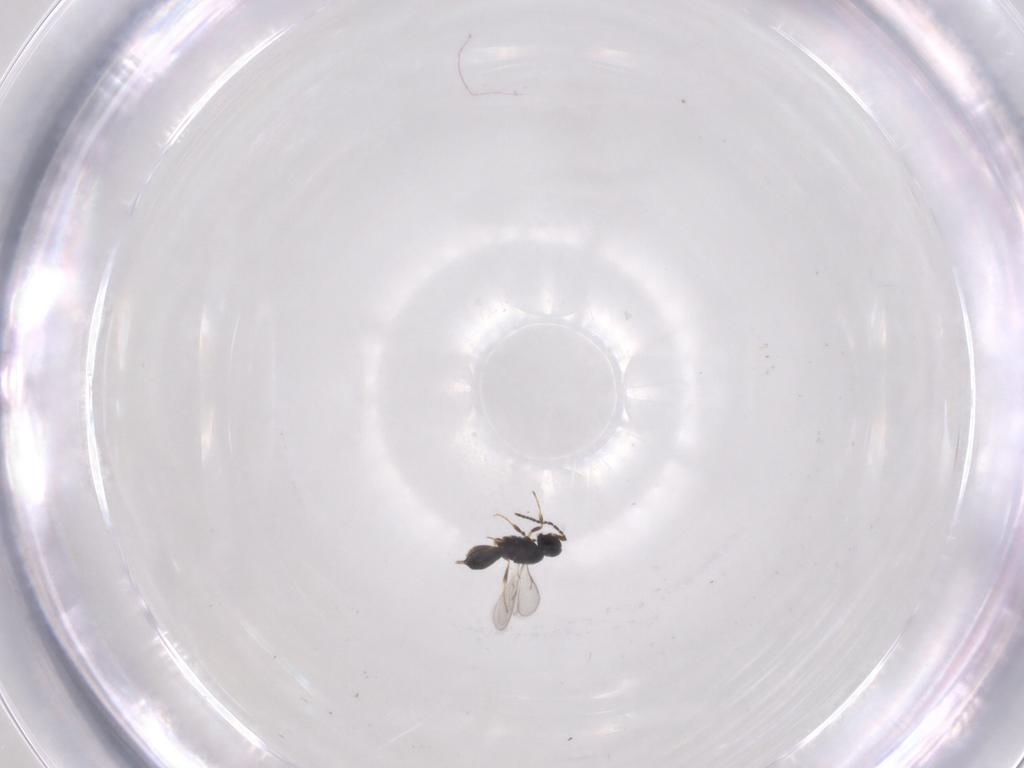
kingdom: Animalia
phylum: Arthropoda
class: Insecta
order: Hymenoptera
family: Scelionidae
